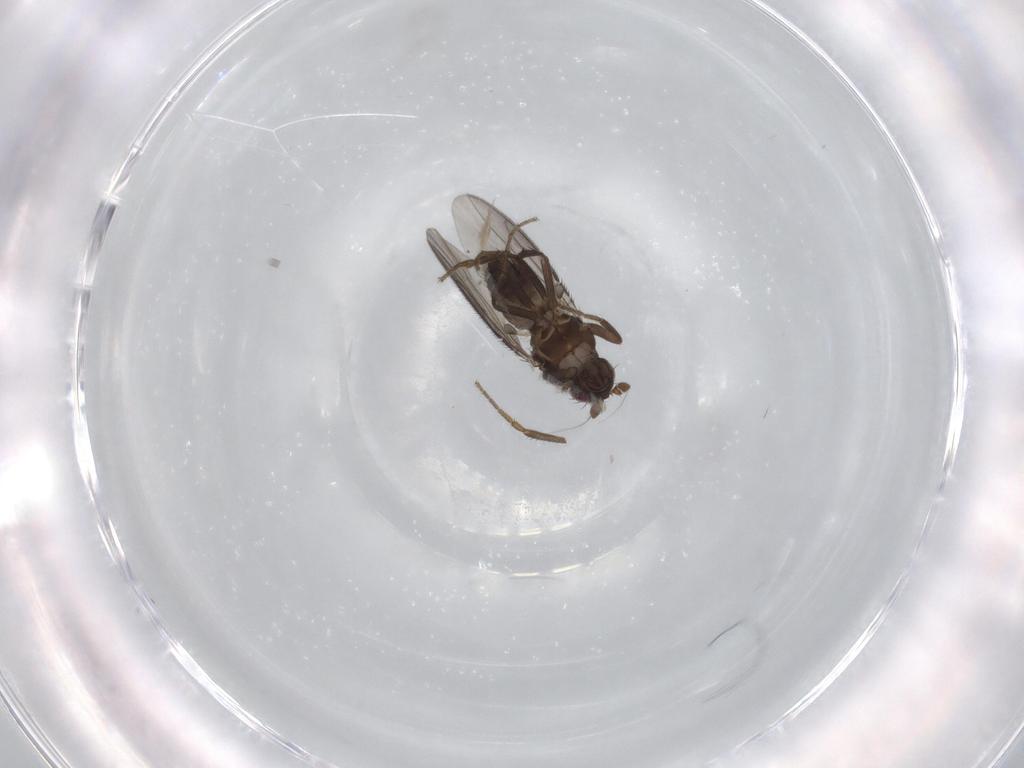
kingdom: Animalia
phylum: Arthropoda
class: Insecta
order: Diptera
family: Sphaeroceridae
